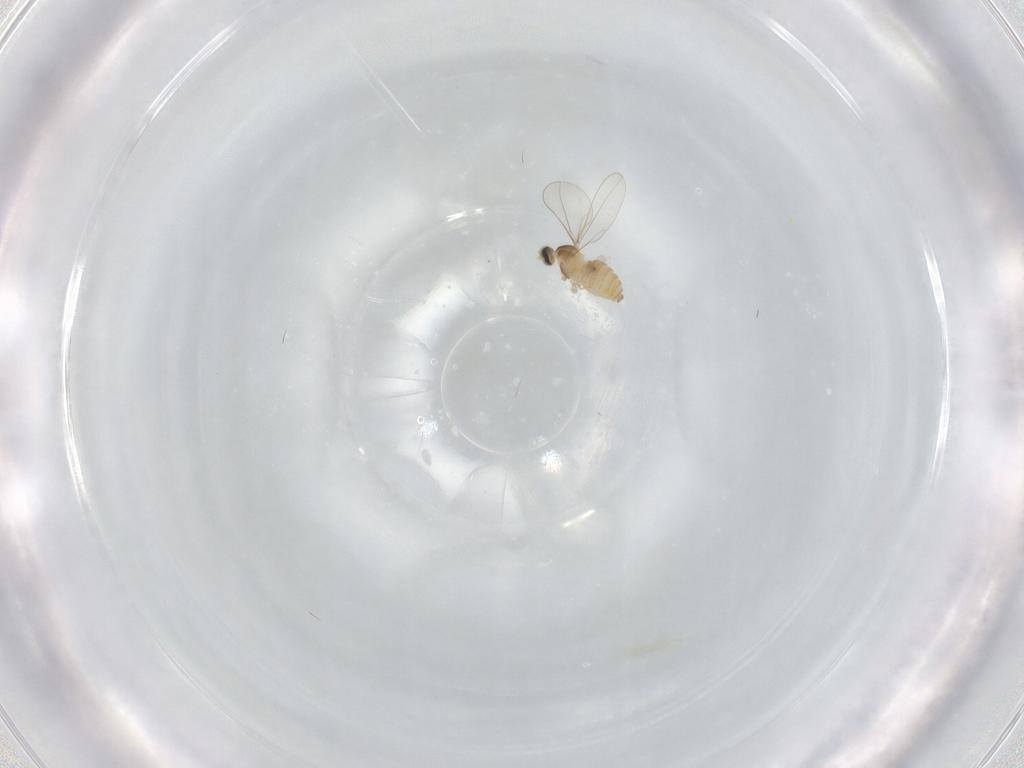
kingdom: Animalia
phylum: Arthropoda
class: Insecta
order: Diptera
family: Cecidomyiidae
